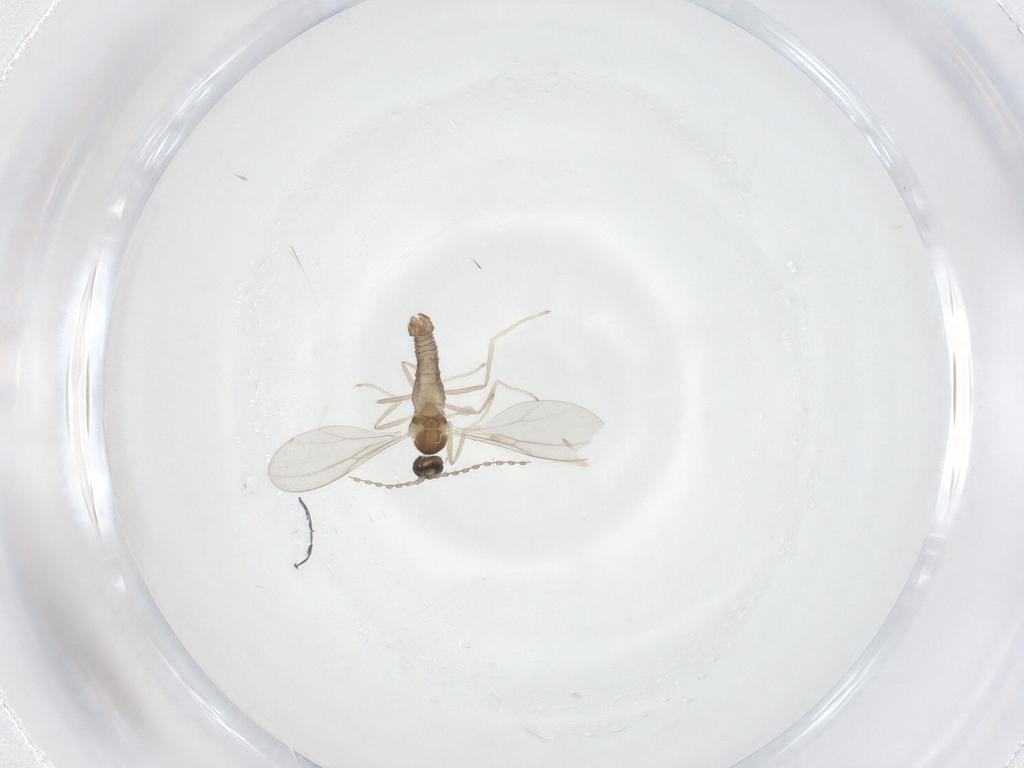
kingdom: Animalia
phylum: Arthropoda
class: Insecta
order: Diptera
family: Cecidomyiidae
